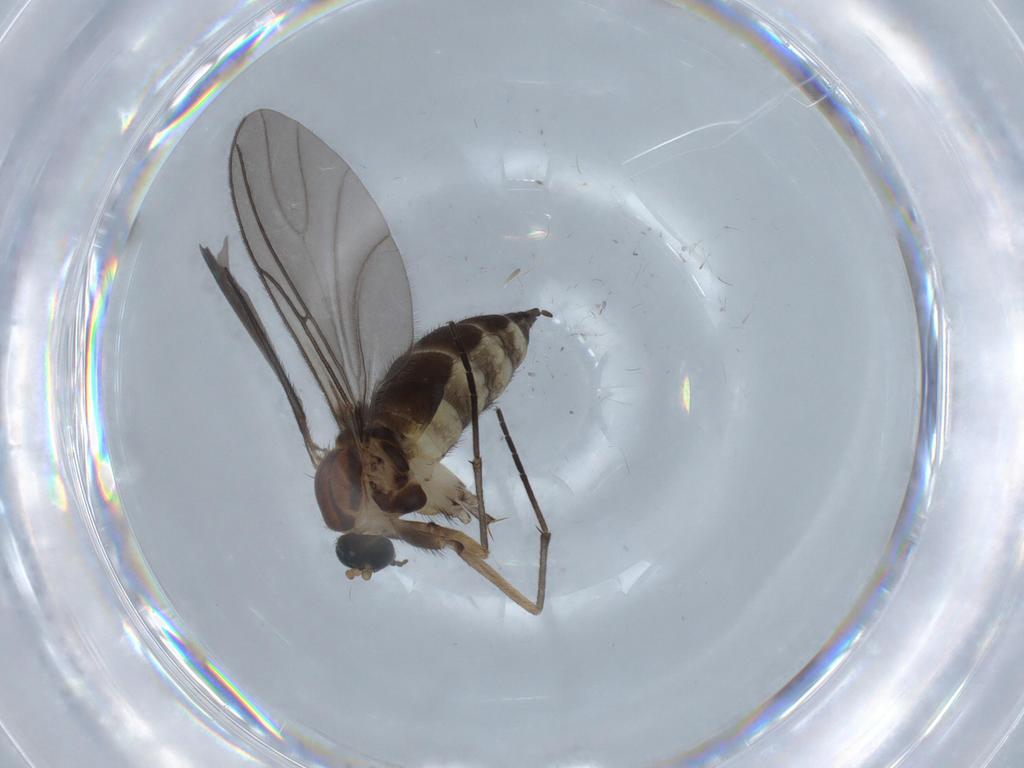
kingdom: Animalia
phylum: Arthropoda
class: Insecta
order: Diptera
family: Sciaridae
